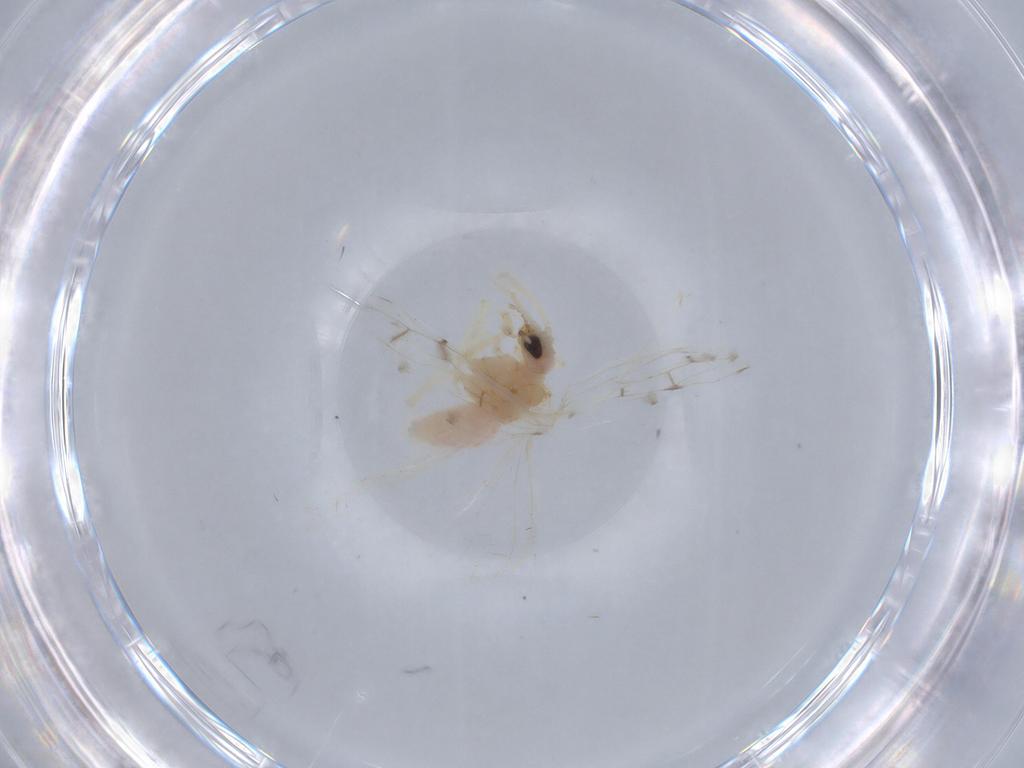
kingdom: Animalia
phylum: Arthropoda
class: Insecta
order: Neuroptera
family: Coniopterygidae
